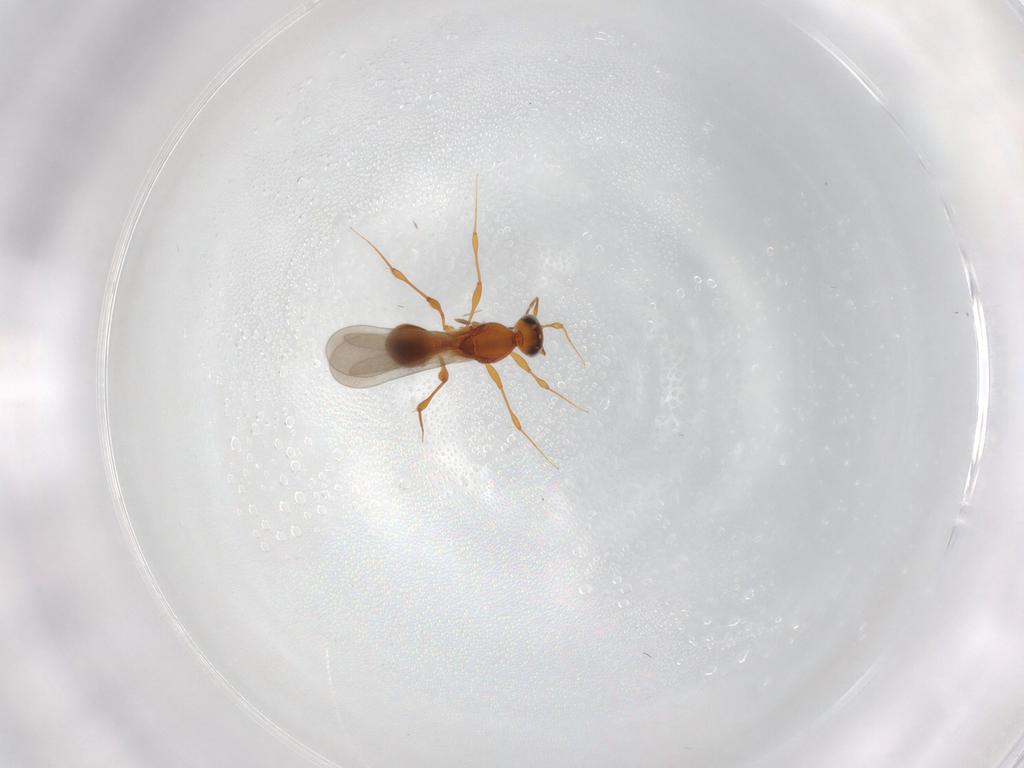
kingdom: Animalia
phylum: Arthropoda
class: Insecta
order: Hymenoptera
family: Platygastridae
